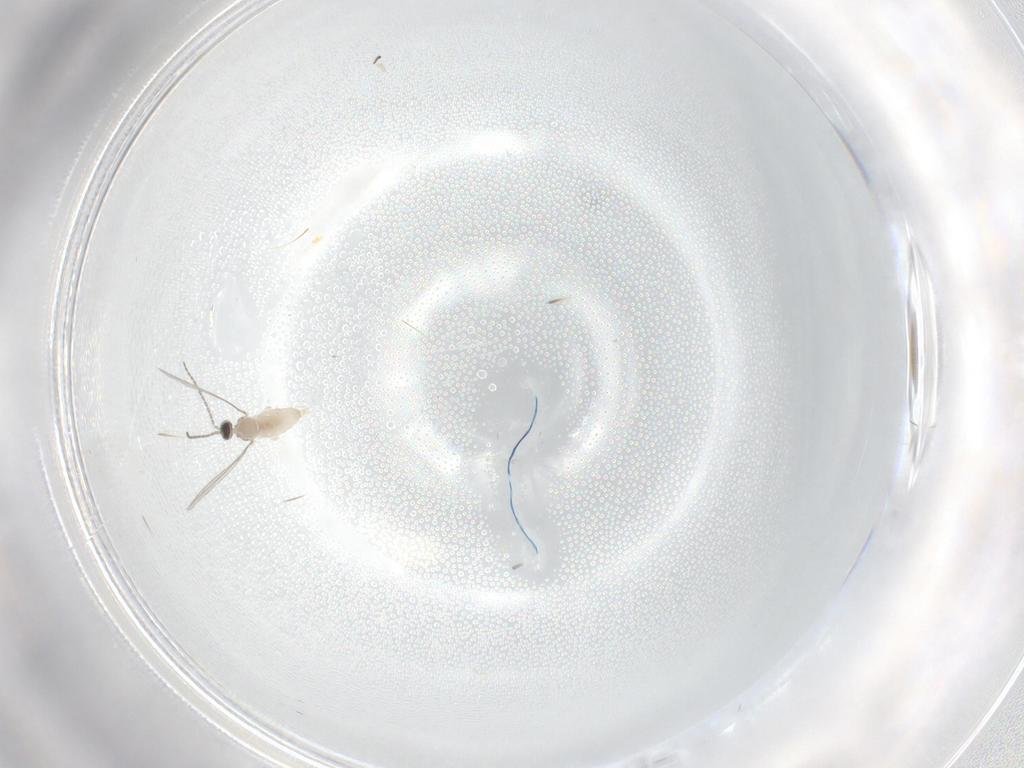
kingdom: Animalia
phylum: Arthropoda
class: Insecta
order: Diptera
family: Cecidomyiidae
